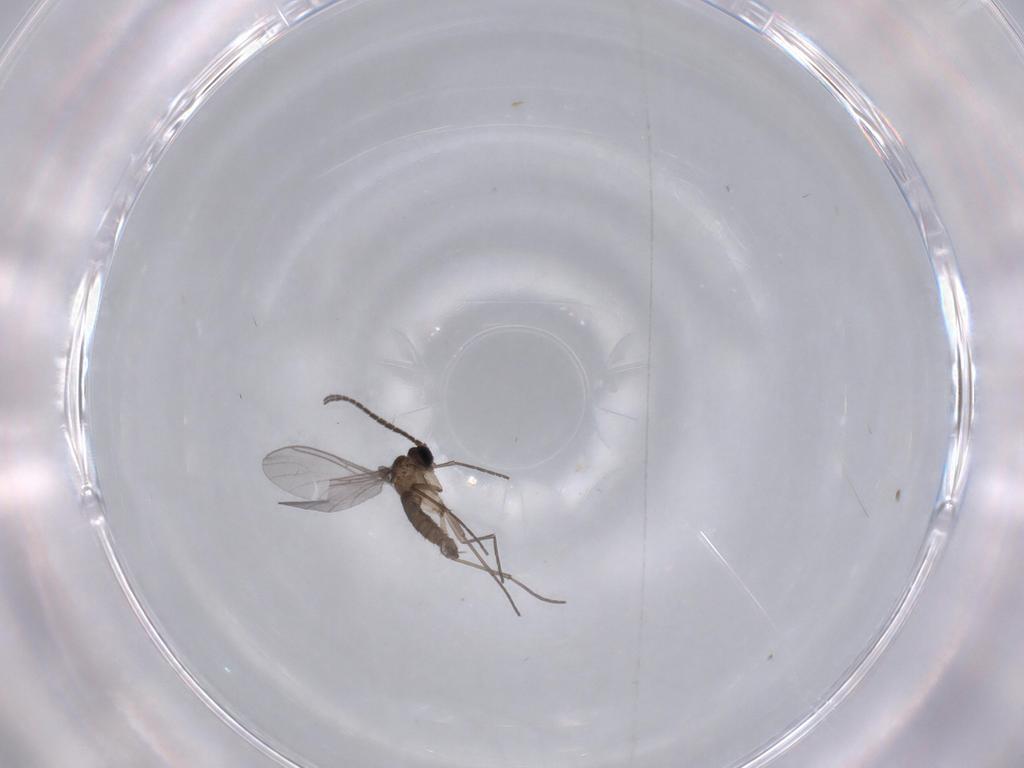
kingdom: Animalia
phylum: Arthropoda
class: Insecta
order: Diptera
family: Sciaridae
